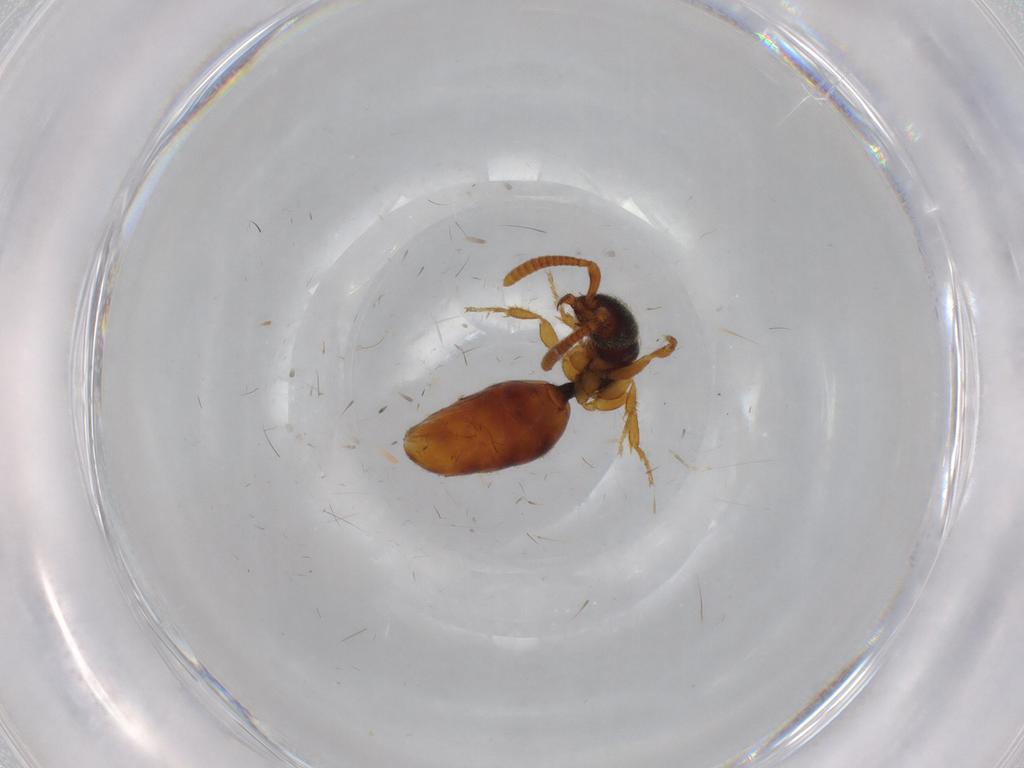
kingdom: Animalia
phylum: Arthropoda
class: Insecta
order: Hymenoptera
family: Bethylidae
